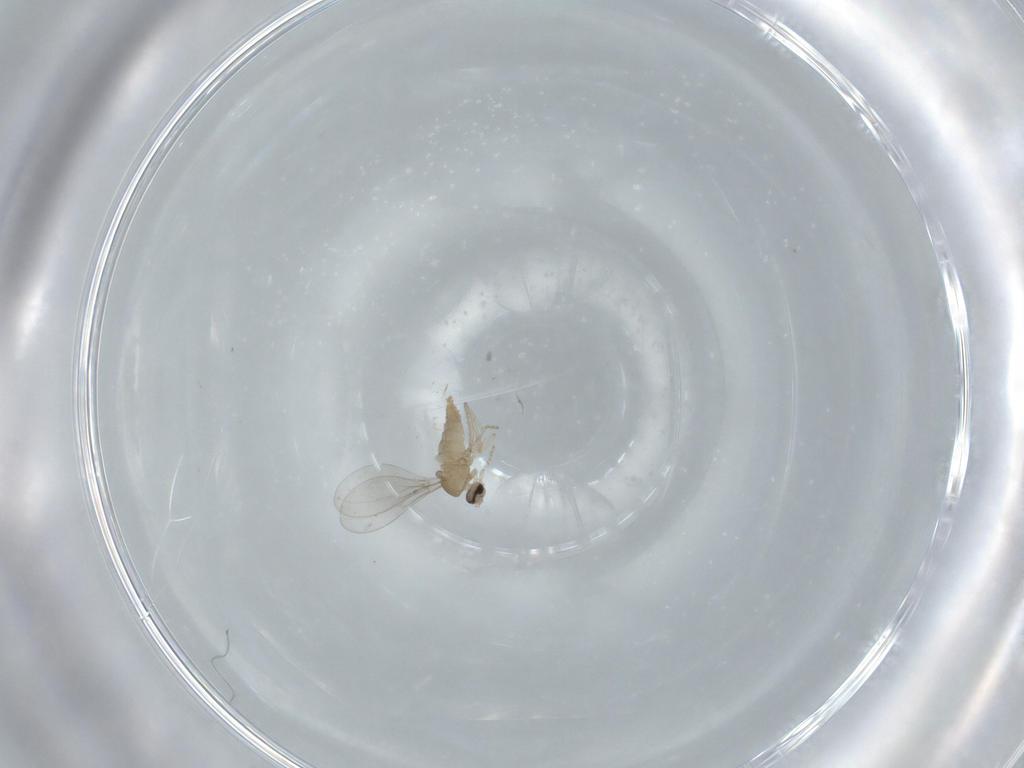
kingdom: Animalia
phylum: Arthropoda
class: Insecta
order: Diptera
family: Cecidomyiidae
